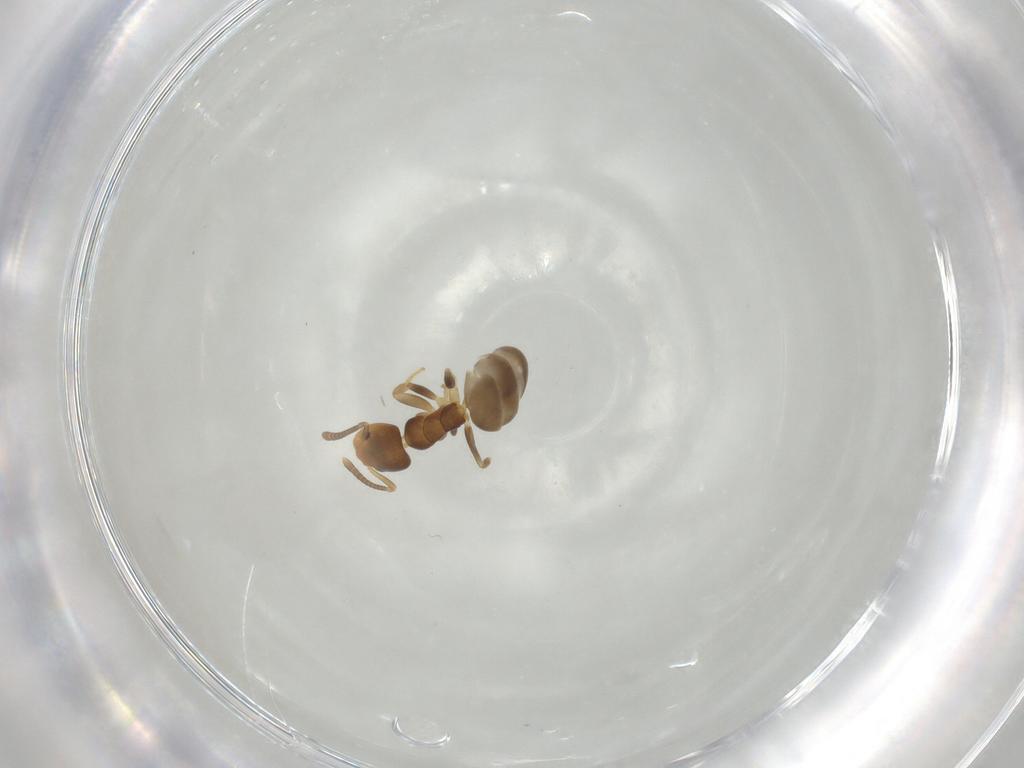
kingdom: Animalia
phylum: Arthropoda
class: Insecta
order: Hymenoptera
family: Formicidae
